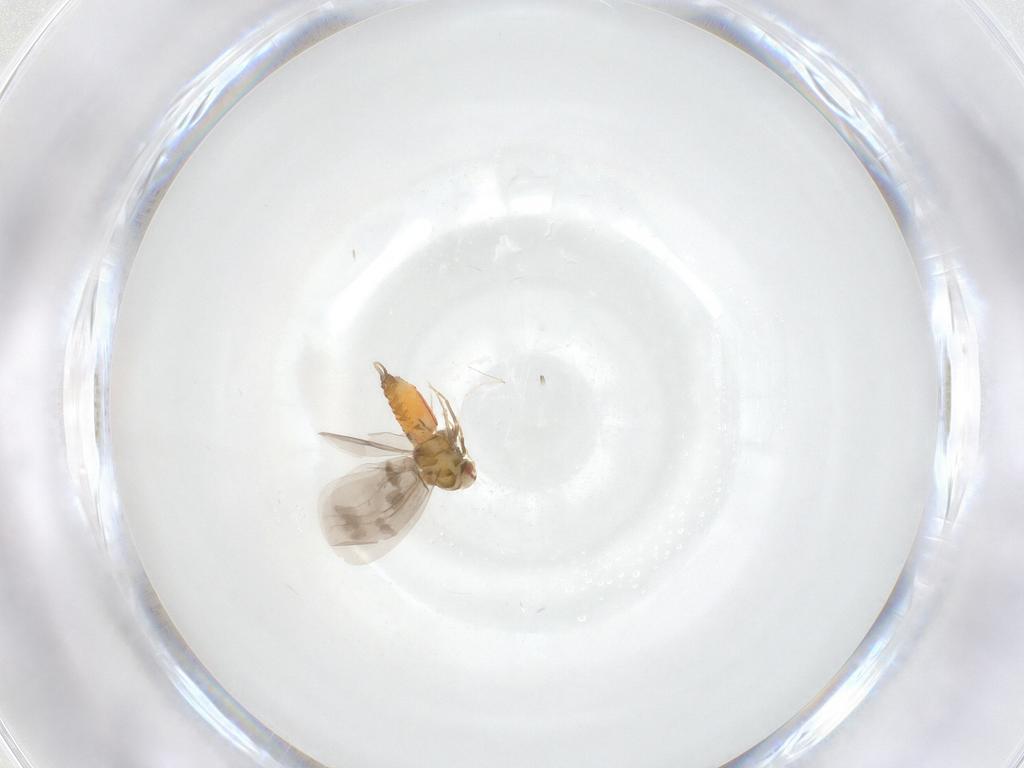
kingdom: Animalia
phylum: Arthropoda
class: Insecta
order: Hemiptera
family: Aleyrodidae
